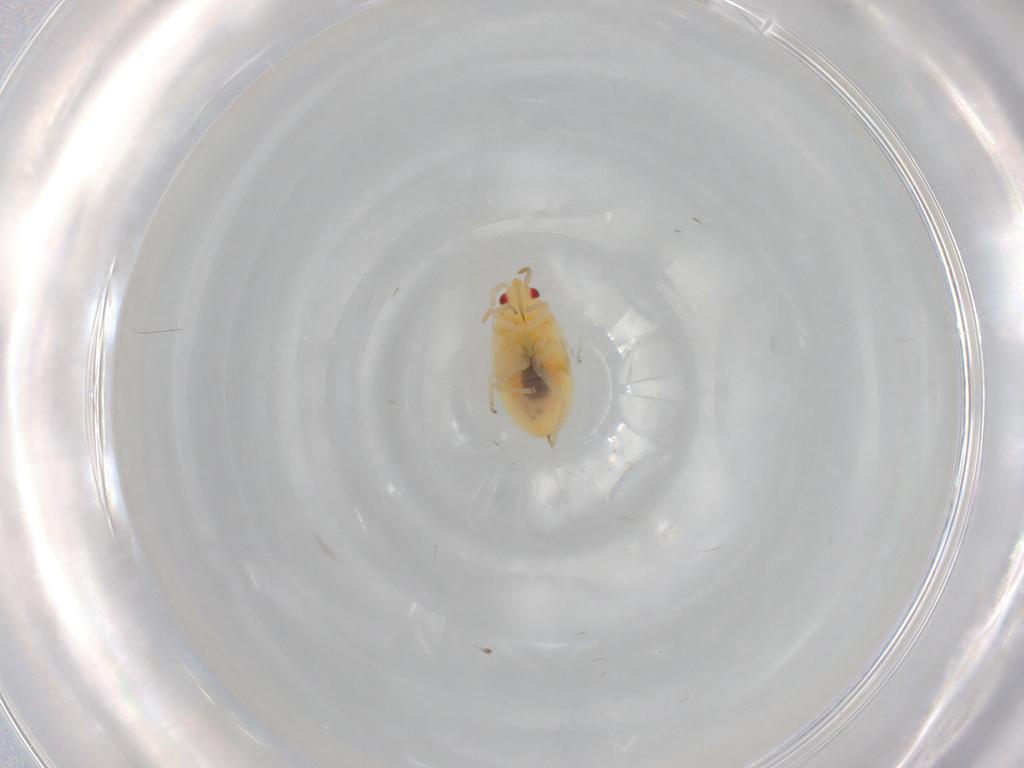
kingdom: Animalia
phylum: Arthropoda
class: Insecta
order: Hemiptera
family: Anthocoridae
